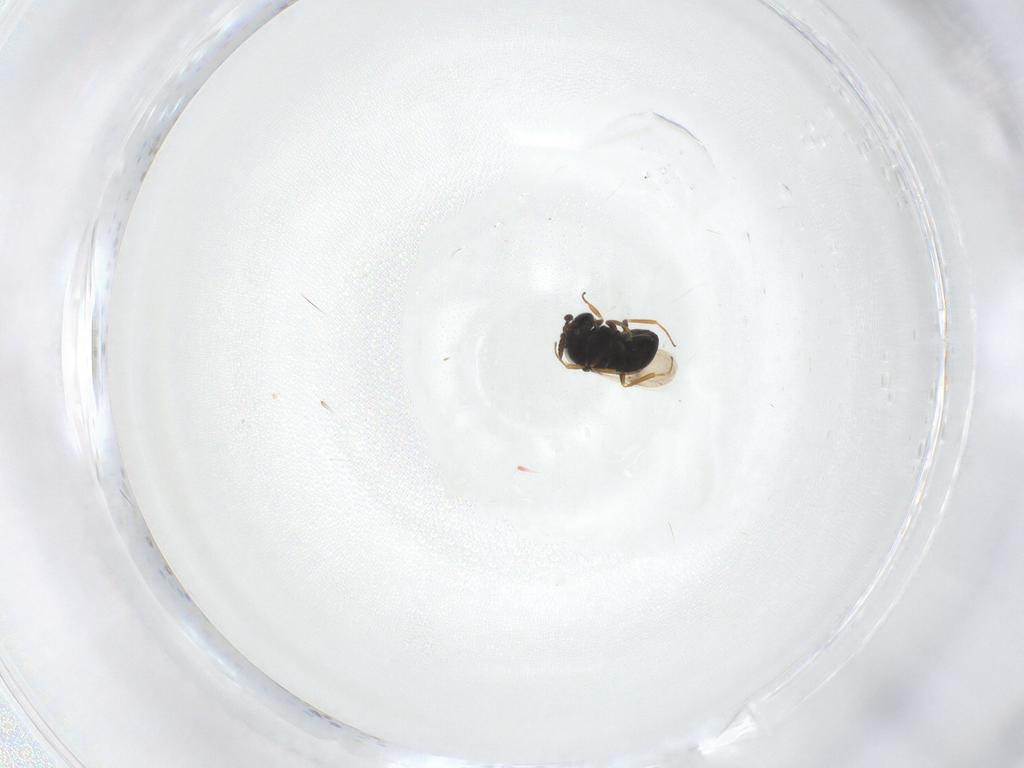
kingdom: Animalia
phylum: Arthropoda
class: Insecta
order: Hymenoptera
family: Scelionidae
